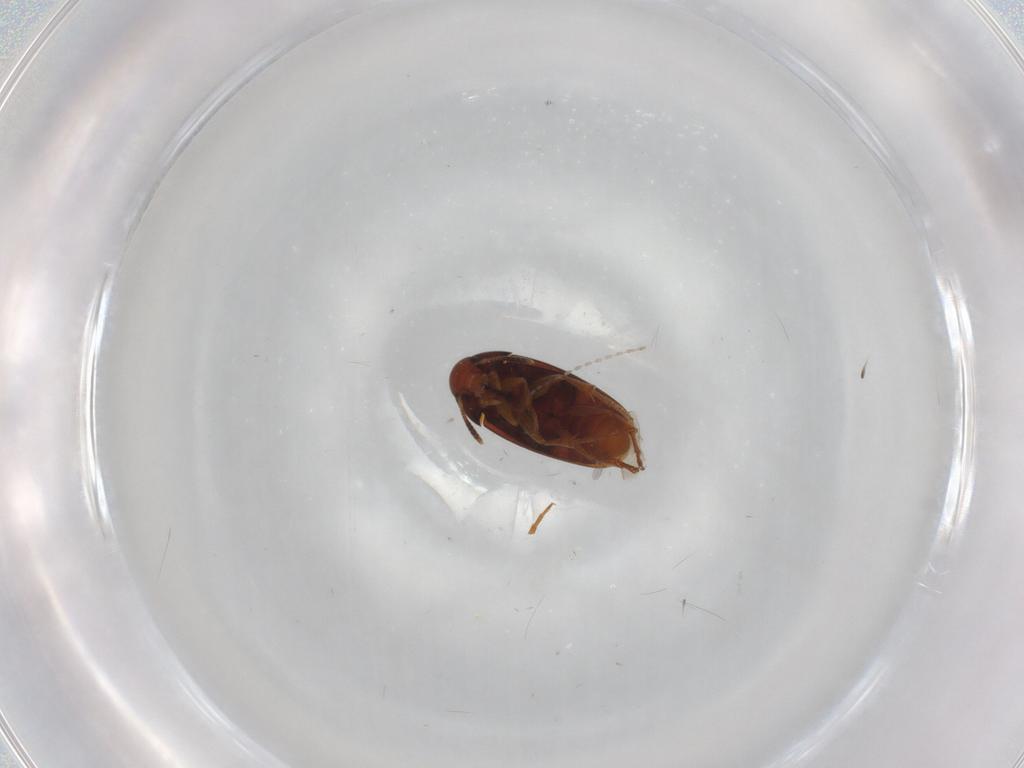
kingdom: Animalia
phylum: Arthropoda
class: Insecta
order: Coleoptera
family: Scraptiidae
